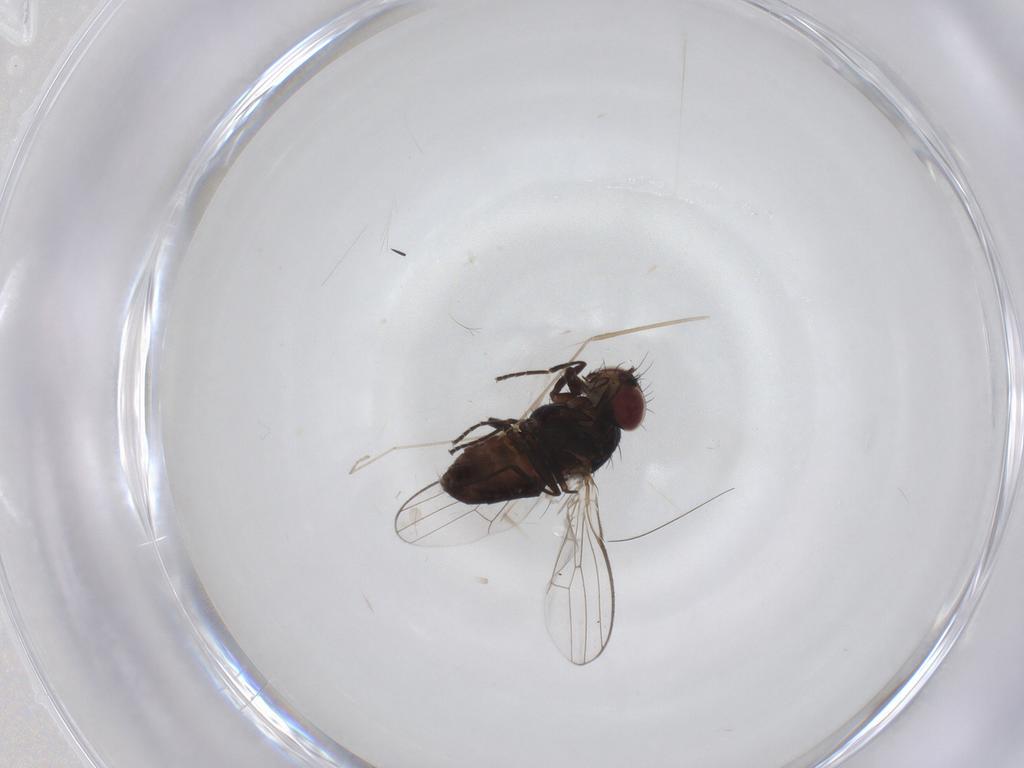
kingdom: Animalia
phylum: Arthropoda
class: Insecta
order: Diptera
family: Carnidae
